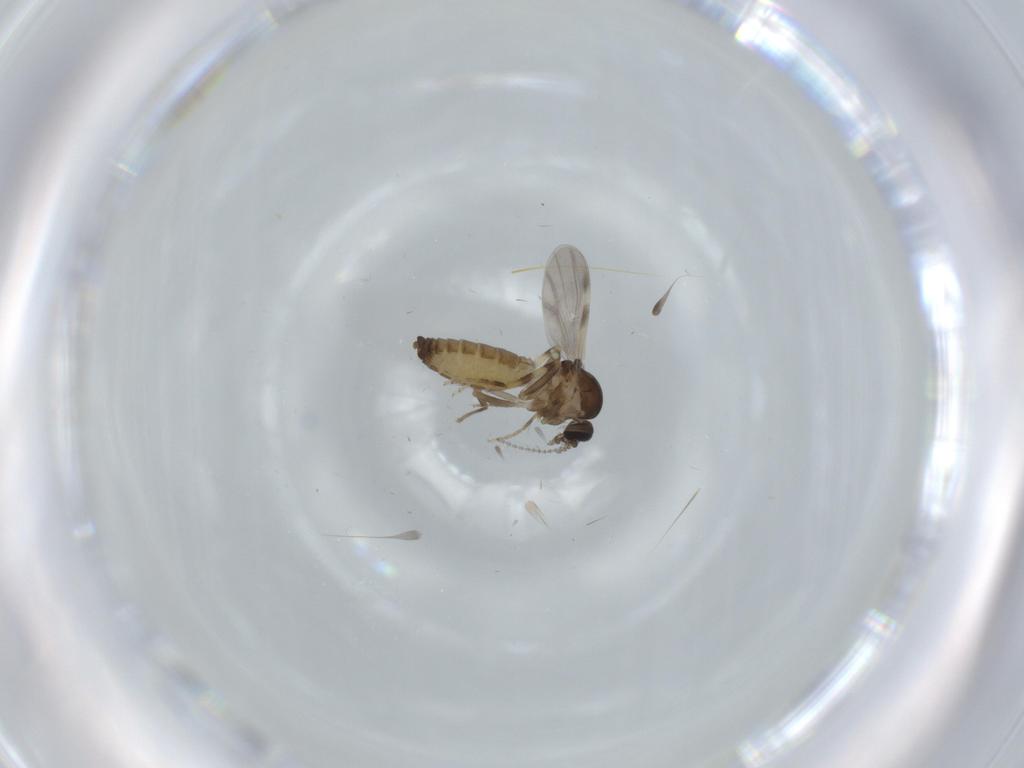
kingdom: Animalia
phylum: Arthropoda
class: Insecta
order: Diptera
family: Ceratopogonidae
